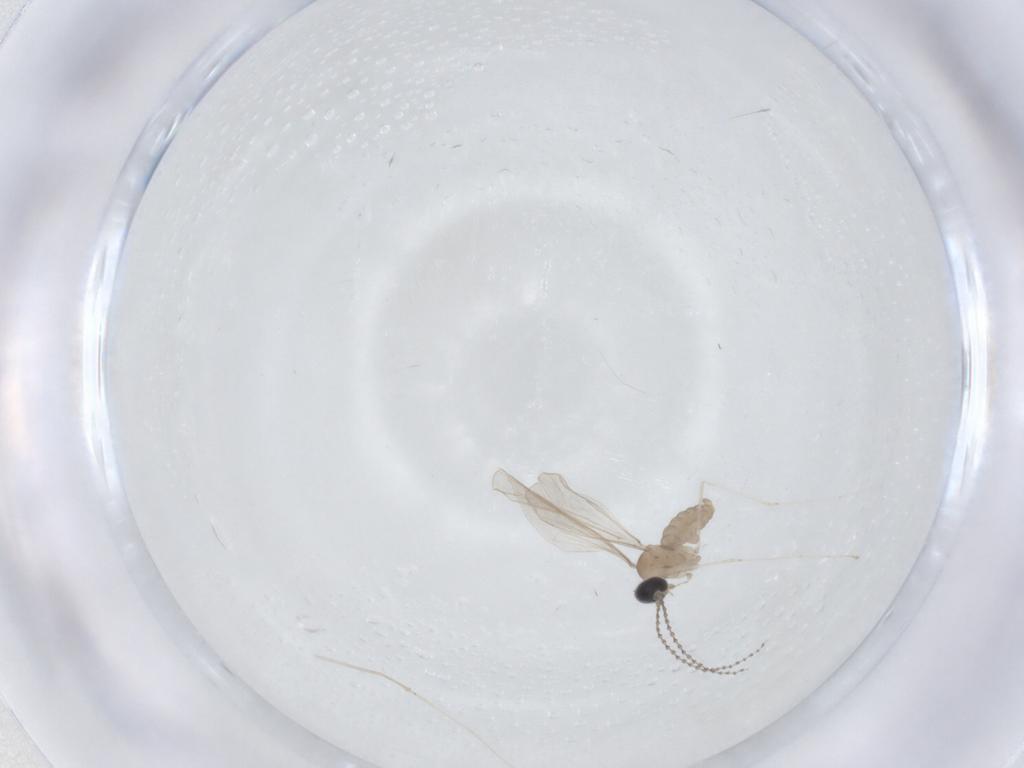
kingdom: Animalia
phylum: Arthropoda
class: Insecta
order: Diptera
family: Cecidomyiidae
